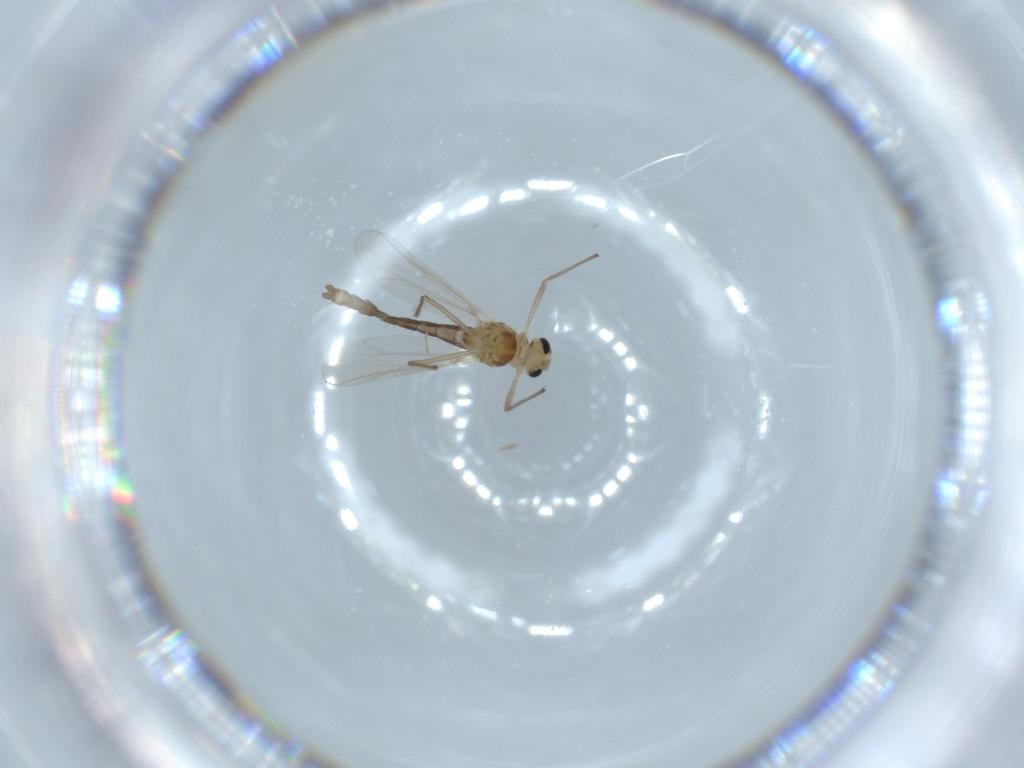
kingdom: Animalia
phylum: Arthropoda
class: Insecta
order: Diptera
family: Chironomidae
